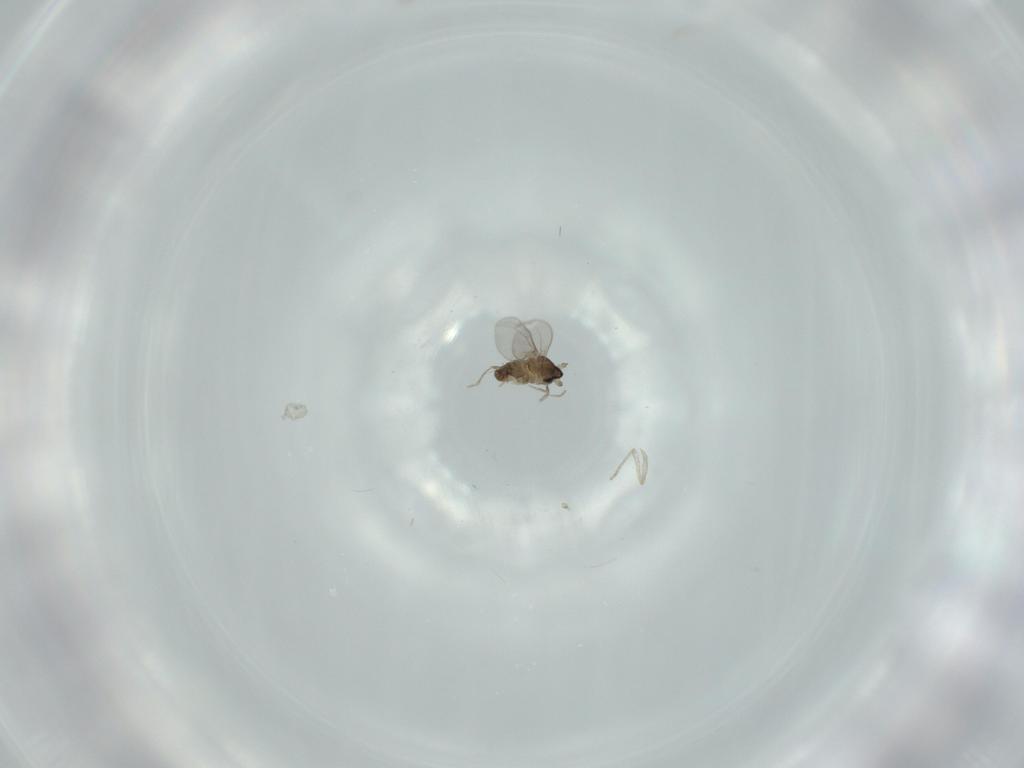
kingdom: Animalia
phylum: Arthropoda
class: Insecta
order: Diptera
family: Cecidomyiidae
